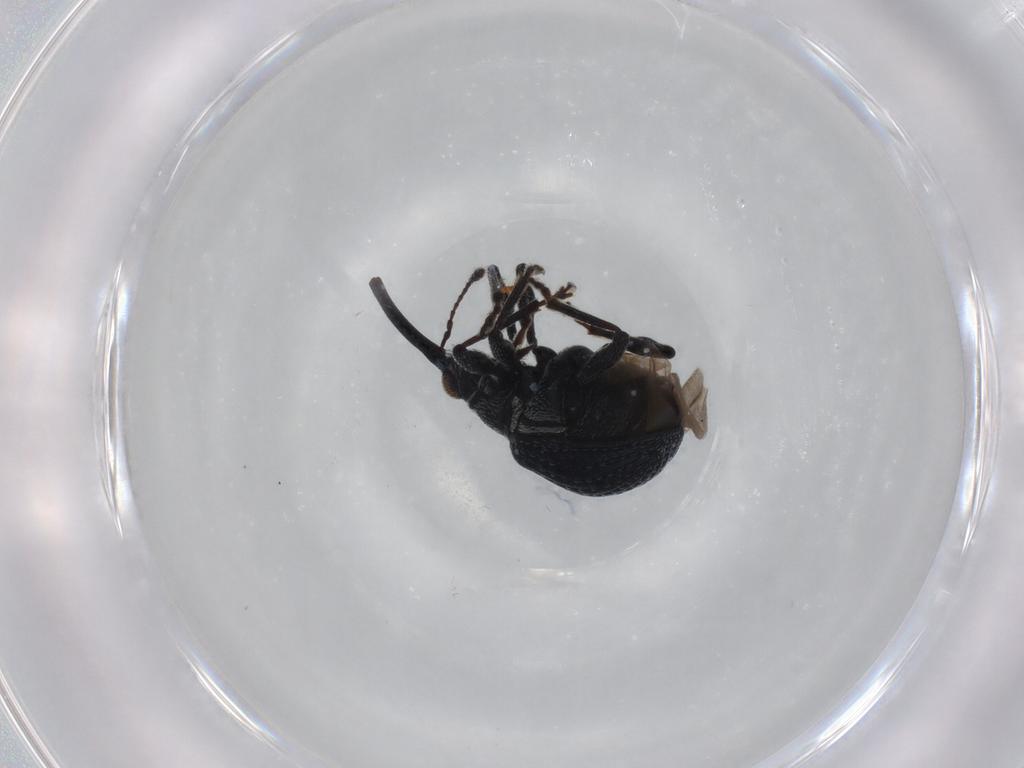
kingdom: Animalia
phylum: Arthropoda
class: Insecta
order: Coleoptera
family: Brentidae
